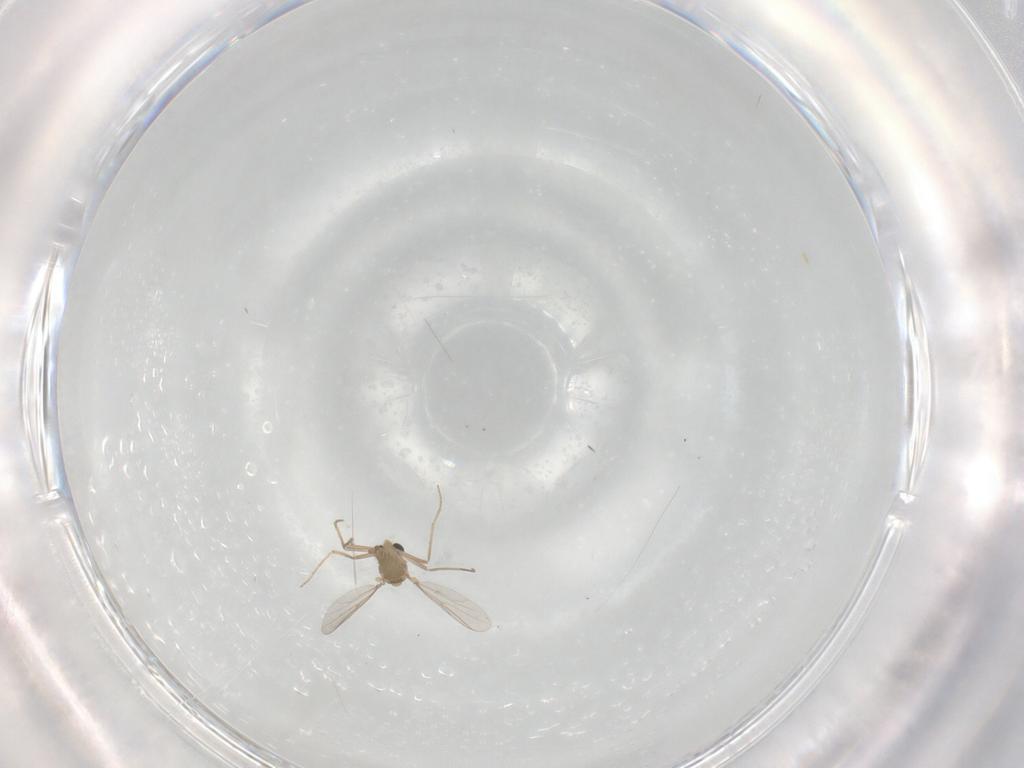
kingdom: Animalia
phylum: Arthropoda
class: Insecta
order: Diptera
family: Chironomidae
